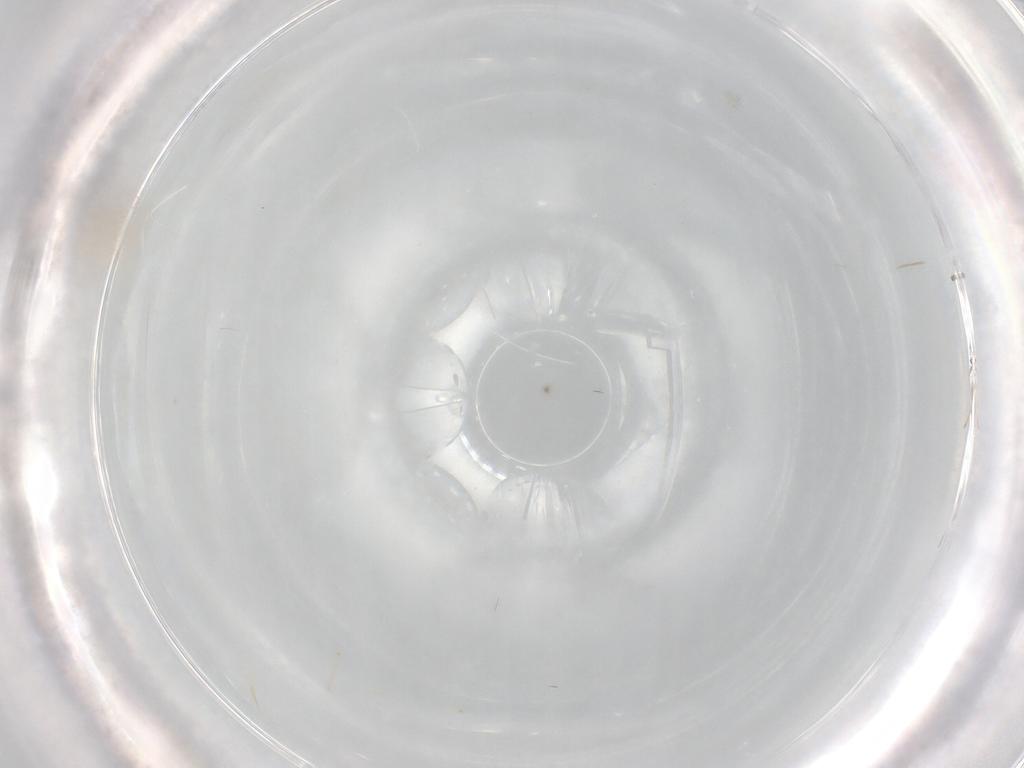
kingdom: Animalia
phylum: Arthropoda
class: Insecta
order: Diptera
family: Cecidomyiidae
